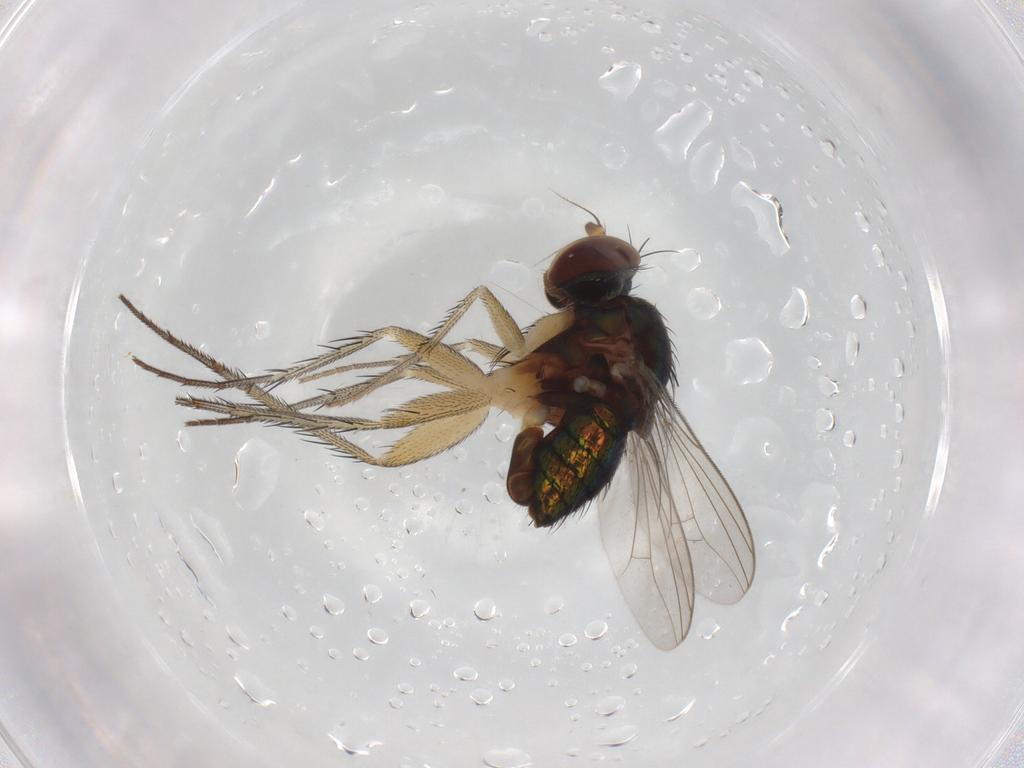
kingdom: Animalia
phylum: Arthropoda
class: Insecta
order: Diptera
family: Dolichopodidae
